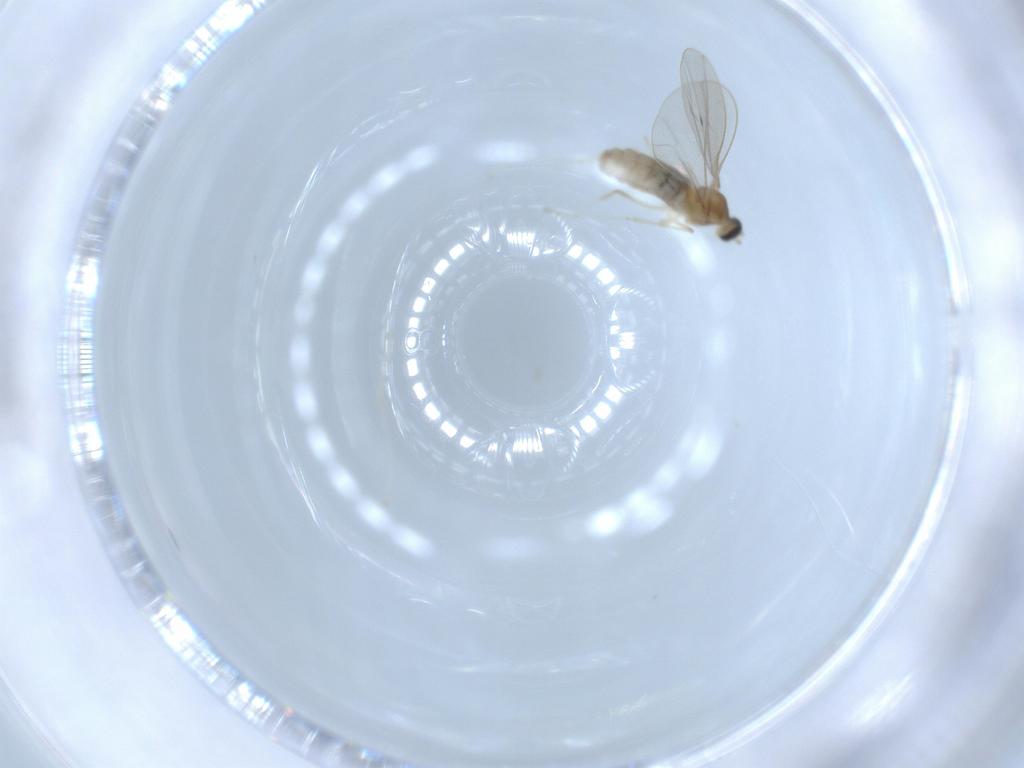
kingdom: Animalia
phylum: Arthropoda
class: Insecta
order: Diptera
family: Cecidomyiidae
